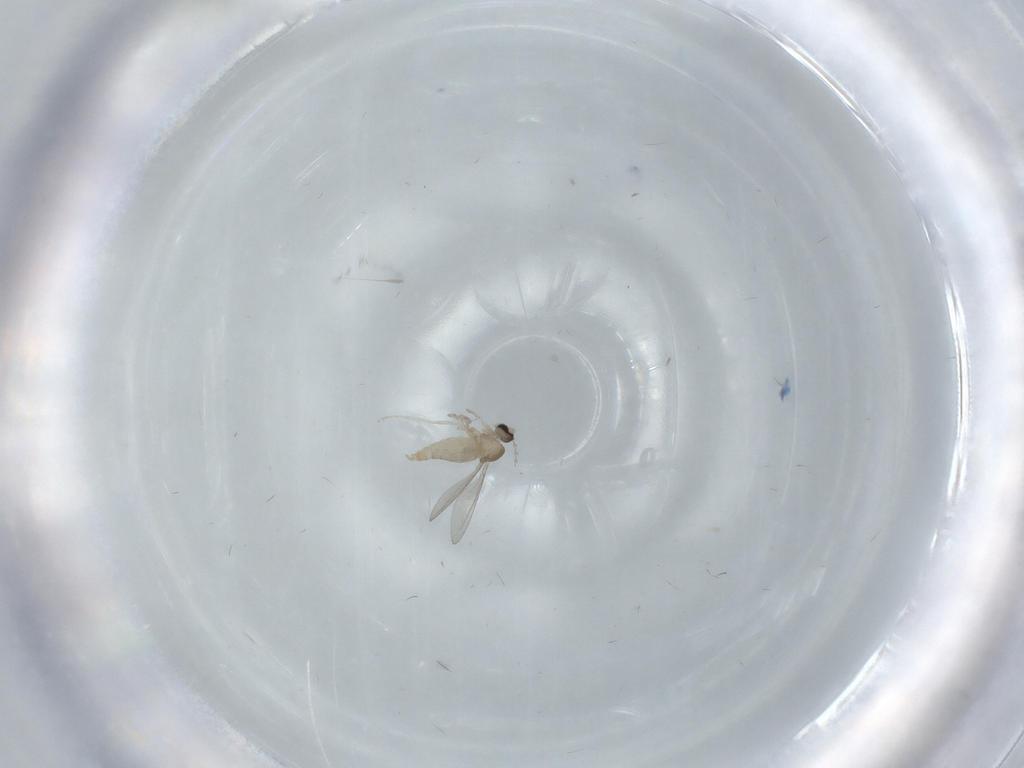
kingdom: Animalia
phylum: Arthropoda
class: Insecta
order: Diptera
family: Cecidomyiidae
